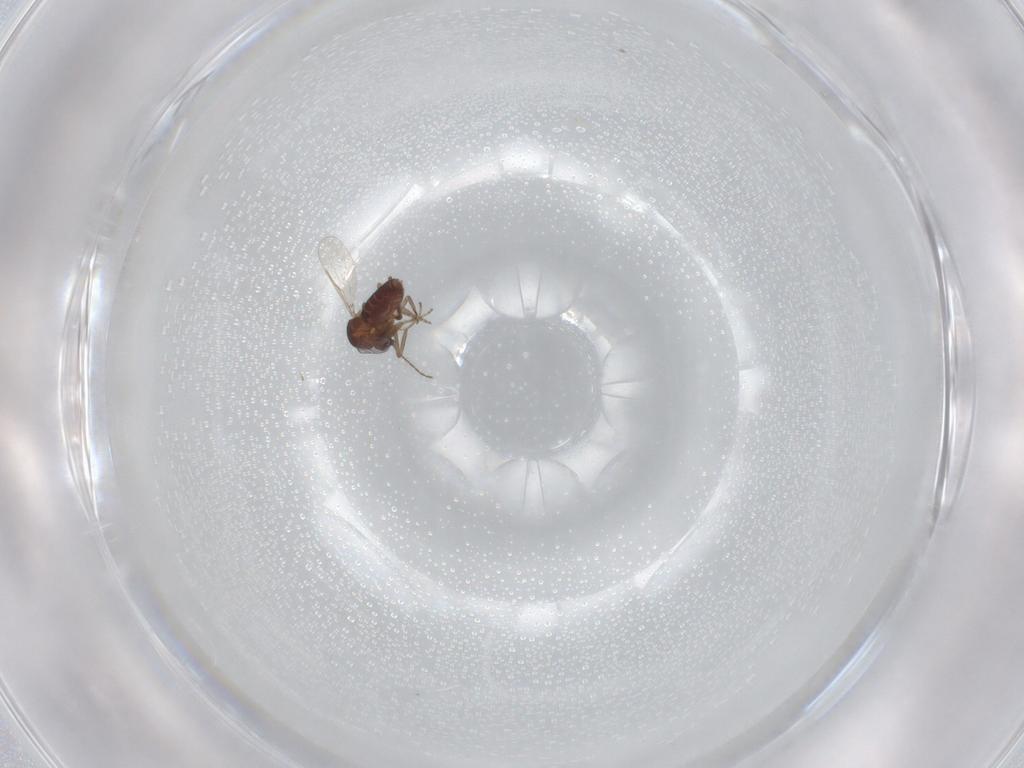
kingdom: Animalia
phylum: Arthropoda
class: Insecta
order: Diptera
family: Ceratopogonidae
